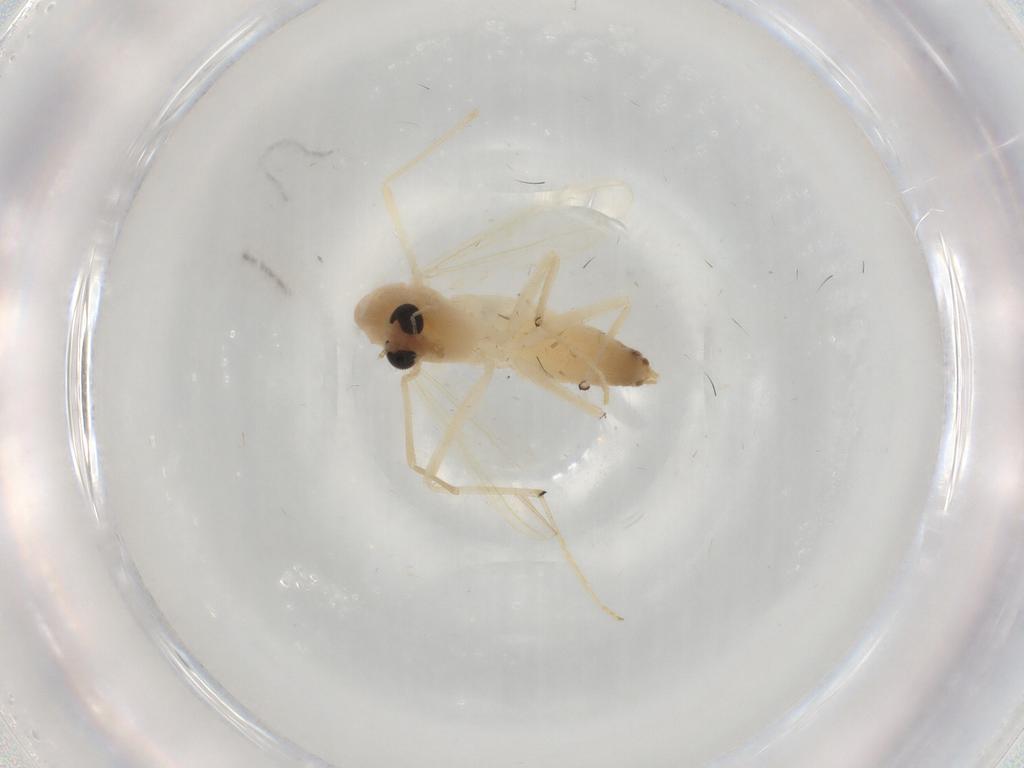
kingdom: Animalia
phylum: Arthropoda
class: Insecta
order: Diptera
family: Ceratopogonidae
